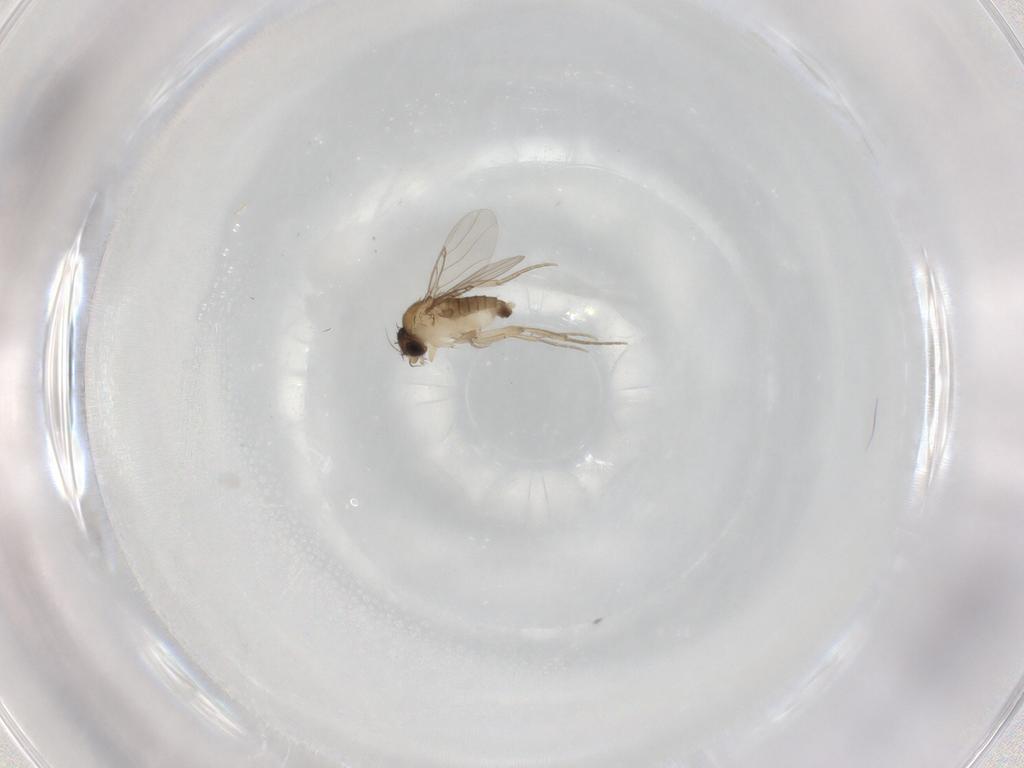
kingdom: Animalia
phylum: Arthropoda
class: Insecta
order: Diptera
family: Phoridae
